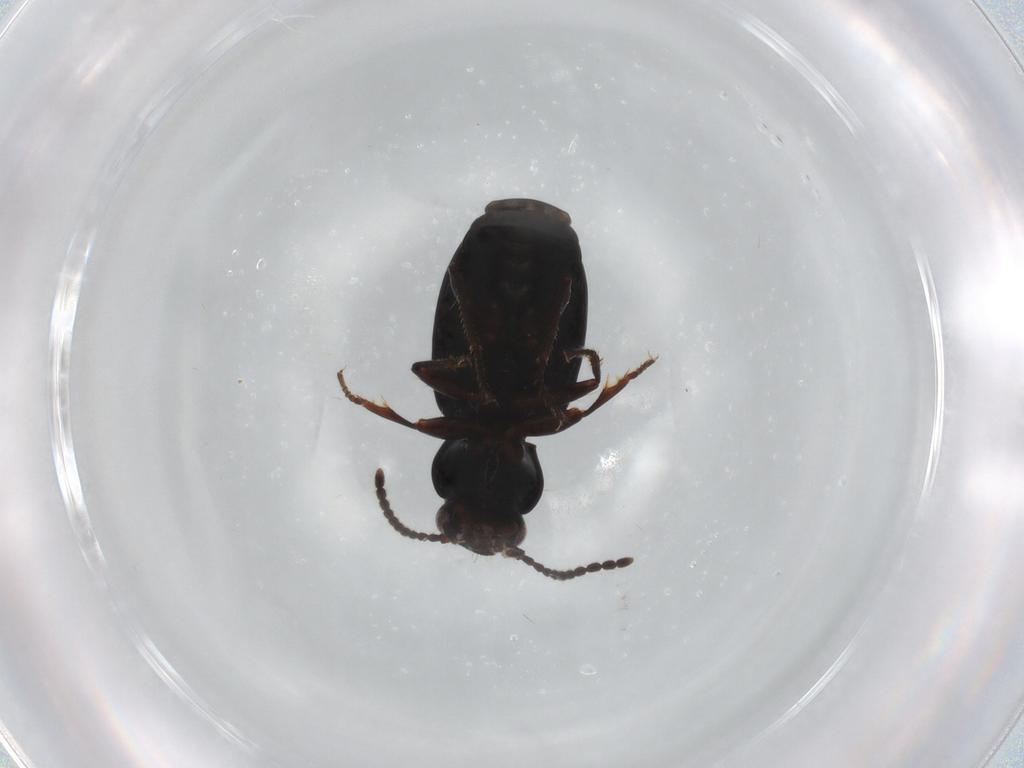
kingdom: Animalia
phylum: Arthropoda
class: Insecta
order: Coleoptera
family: Carabidae
